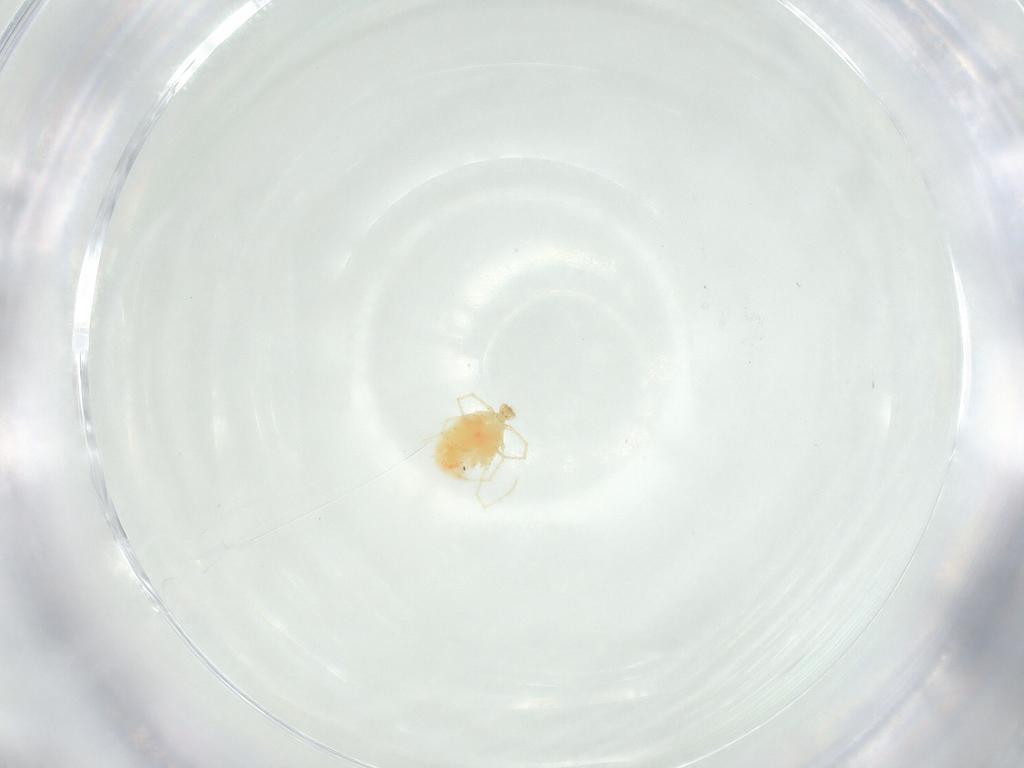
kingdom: Animalia
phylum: Arthropoda
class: Arachnida
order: Trombidiformes
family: Erythraeidae
